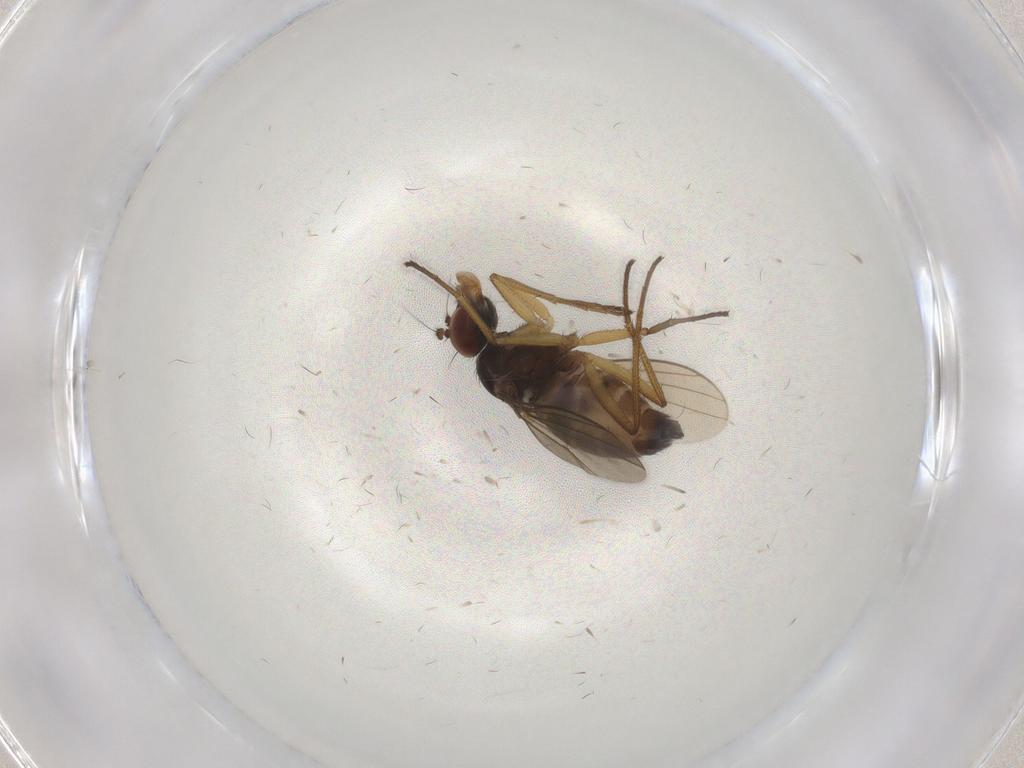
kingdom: Animalia
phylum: Arthropoda
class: Insecta
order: Diptera
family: Dolichopodidae
